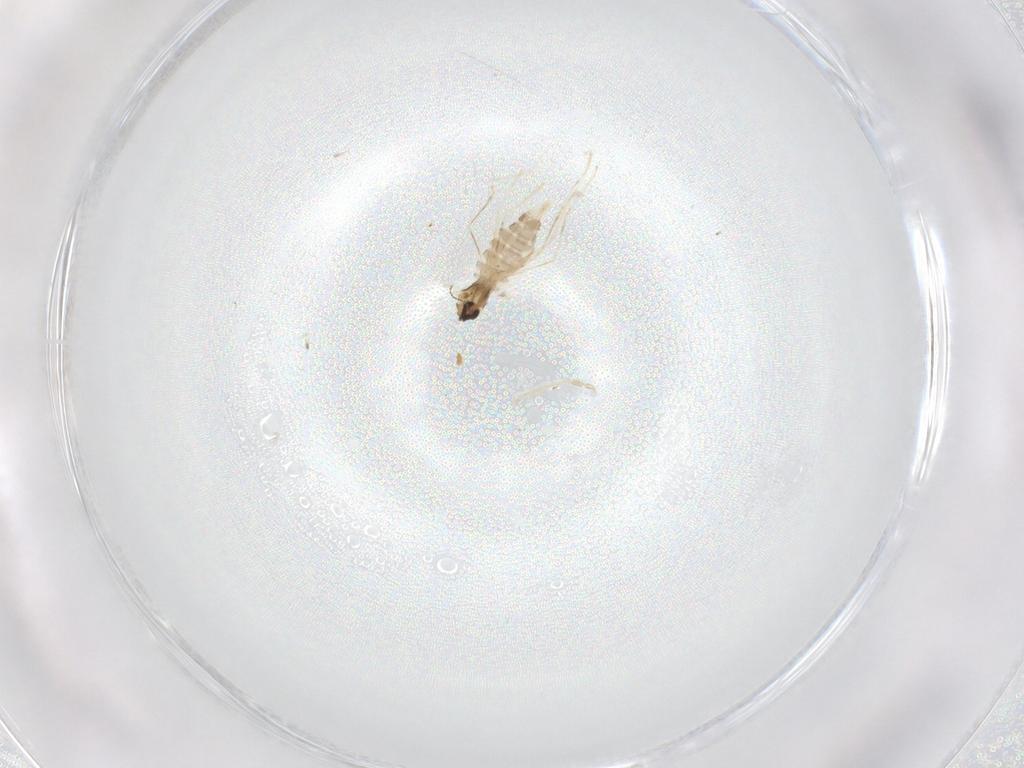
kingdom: Animalia
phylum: Arthropoda
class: Insecta
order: Diptera
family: Cecidomyiidae
